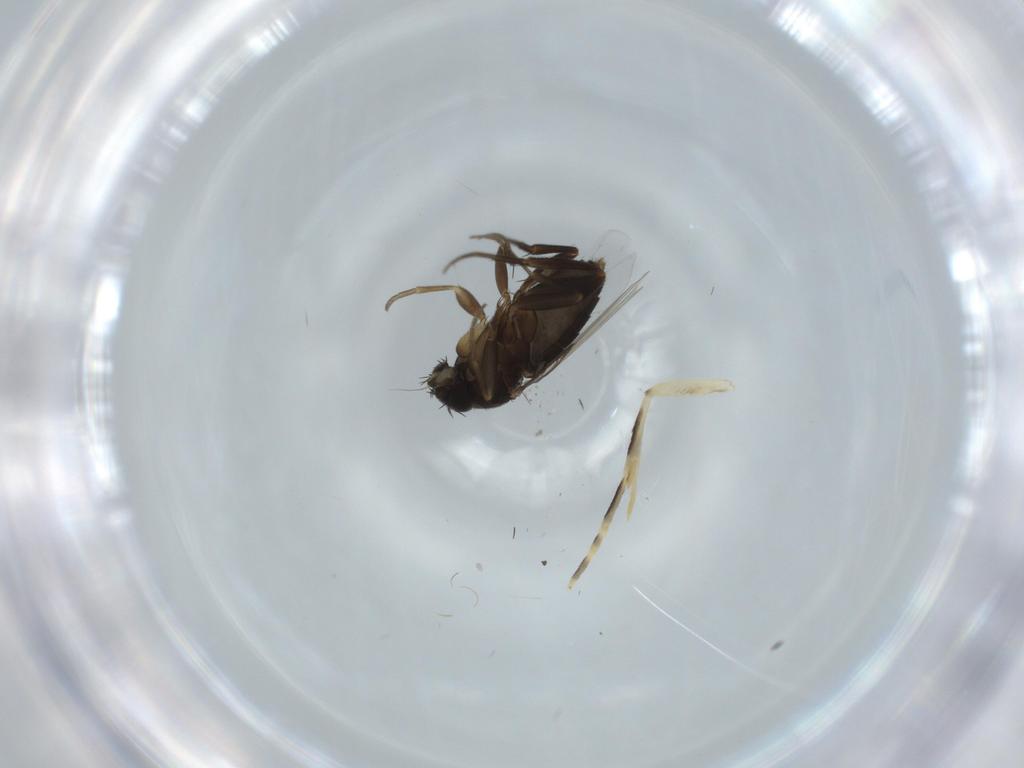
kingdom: Animalia
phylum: Arthropoda
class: Insecta
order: Diptera
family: Phoridae
